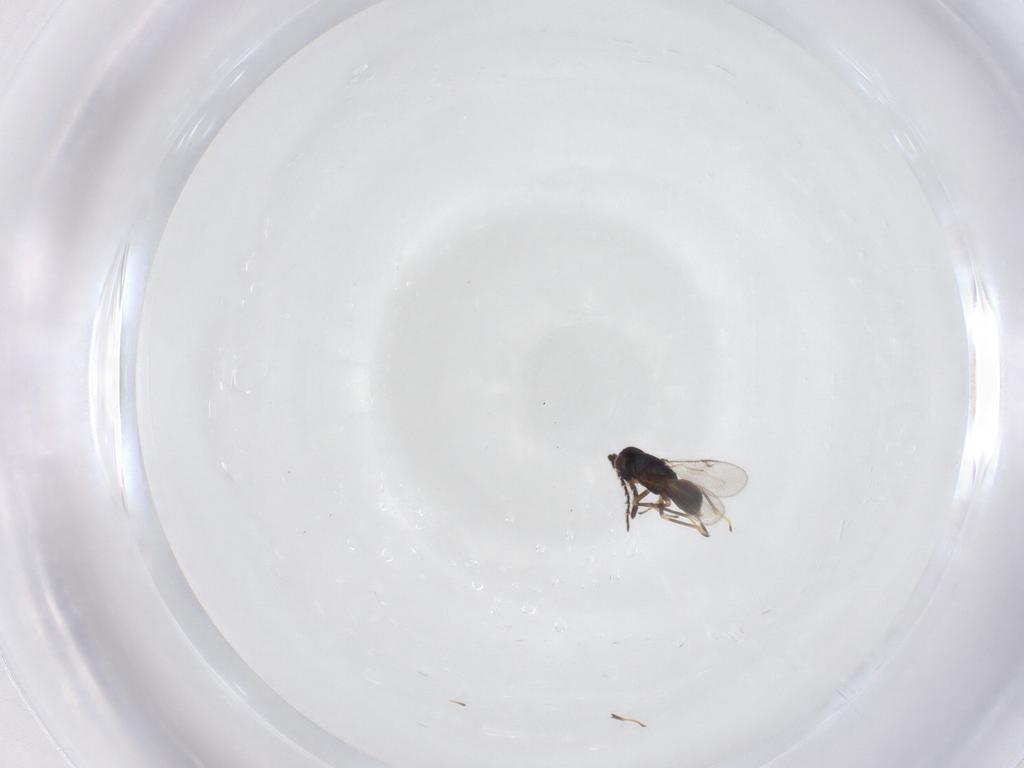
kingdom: Animalia
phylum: Arthropoda
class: Insecta
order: Hymenoptera
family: Encyrtidae
